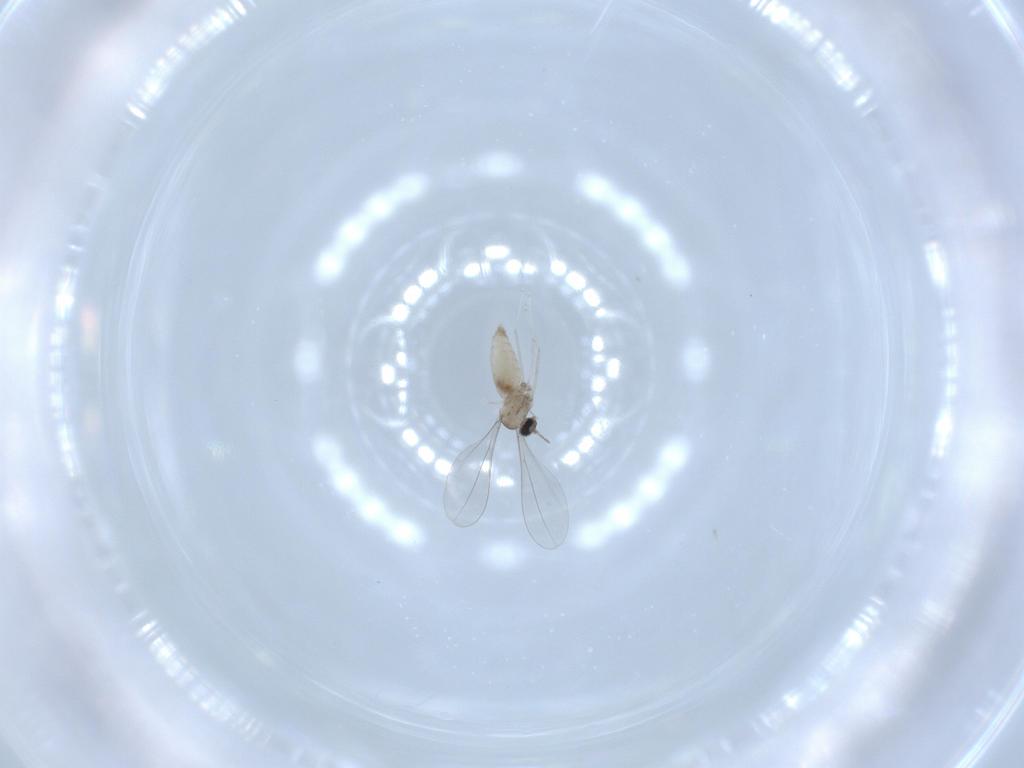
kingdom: Animalia
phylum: Arthropoda
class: Insecta
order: Diptera
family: Cecidomyiidae
